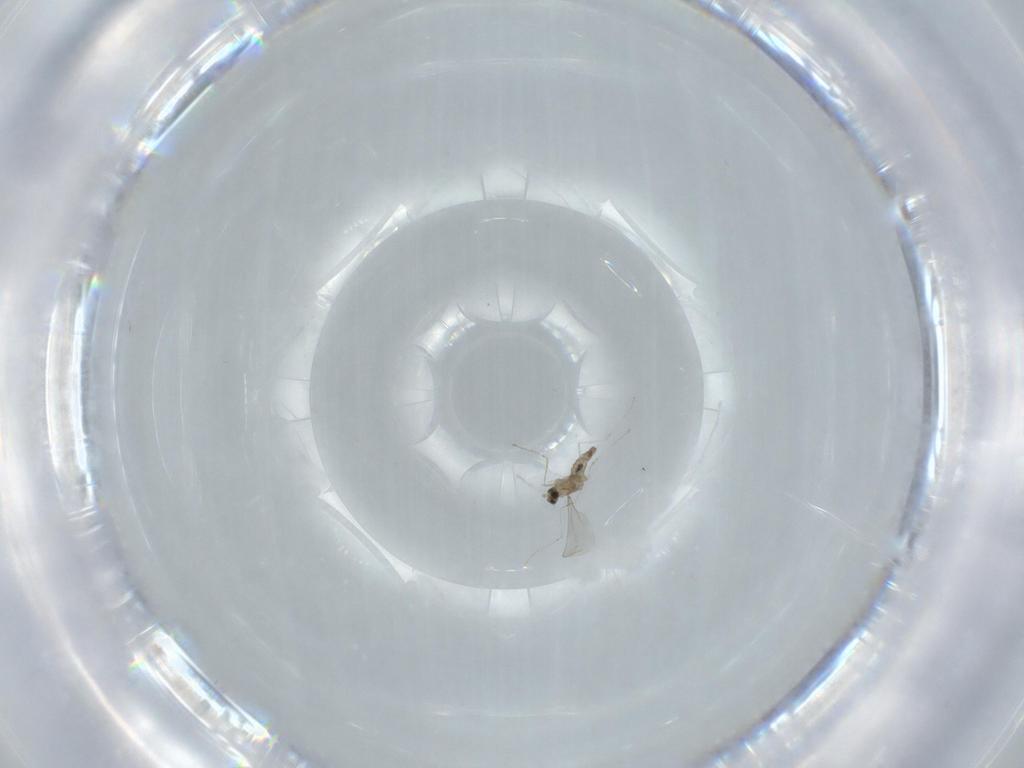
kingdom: Animalia
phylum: Arthropoda
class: Insecta
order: Diptera
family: Cecidomyiidae
